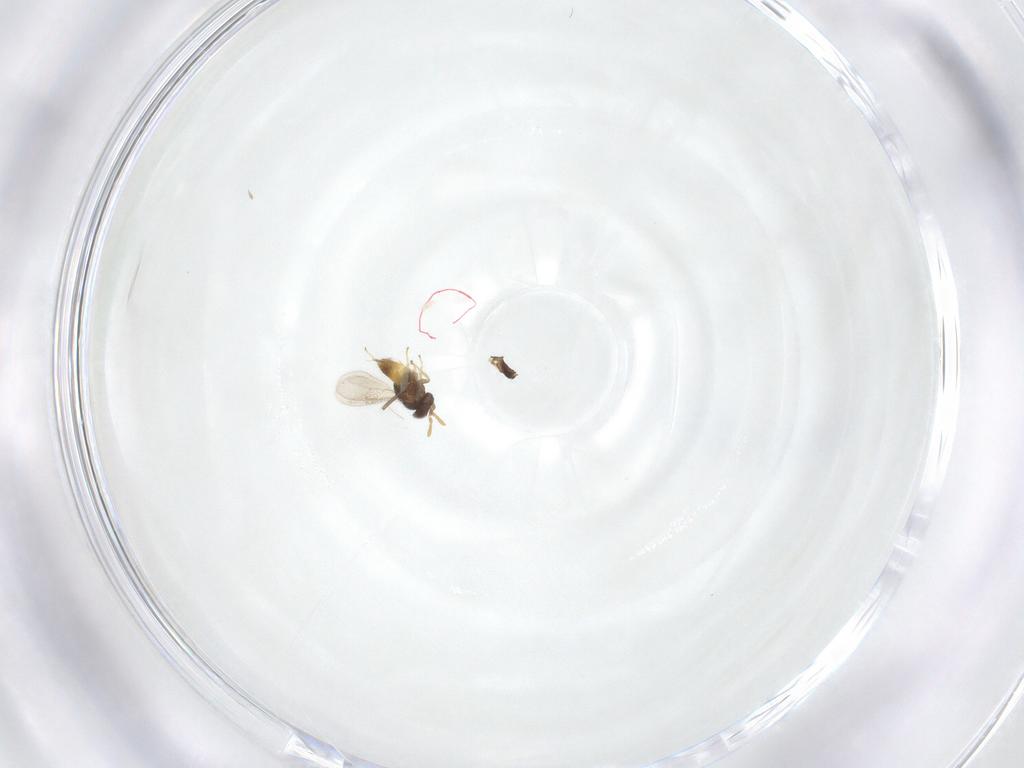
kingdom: Animalia
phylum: Arthropoda
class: Insecta
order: Hymenoptera
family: Aphelinidae
